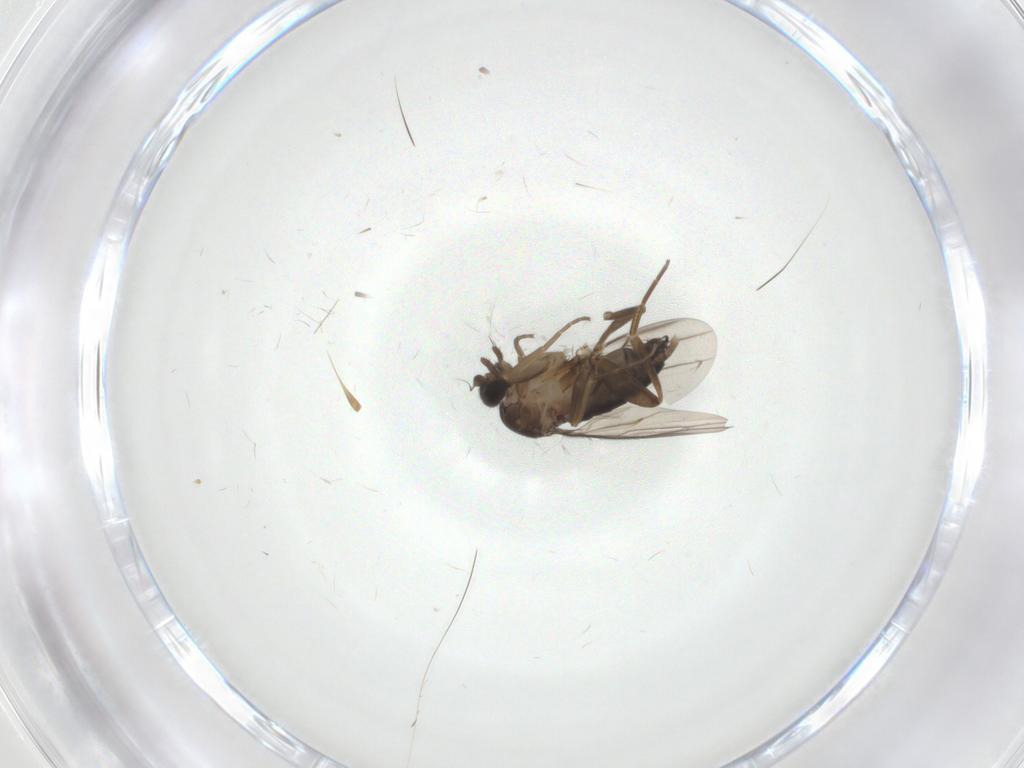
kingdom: Animalia
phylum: Arthropoda
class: Insecta
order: Diptera
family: Phoridae
